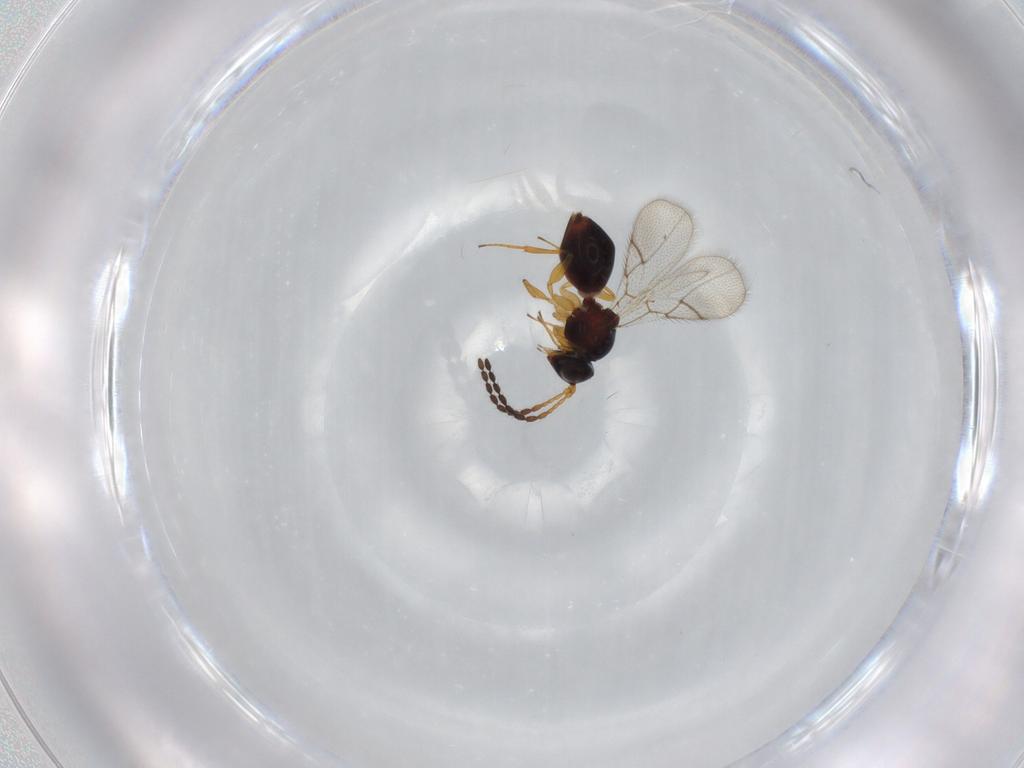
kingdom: Animalia
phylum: Arthropoda
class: Insecta
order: Hymenoptera
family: Figitidae
